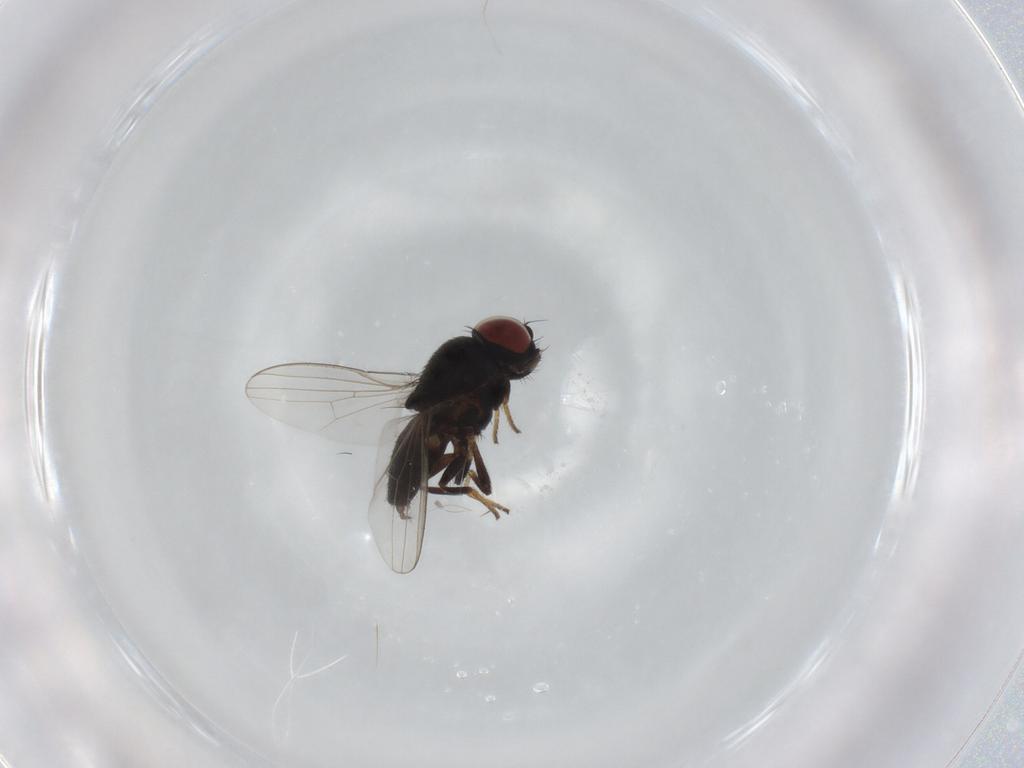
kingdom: Animalia
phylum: Arthropoda
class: Insecta
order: Diptera
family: Milichiidae
